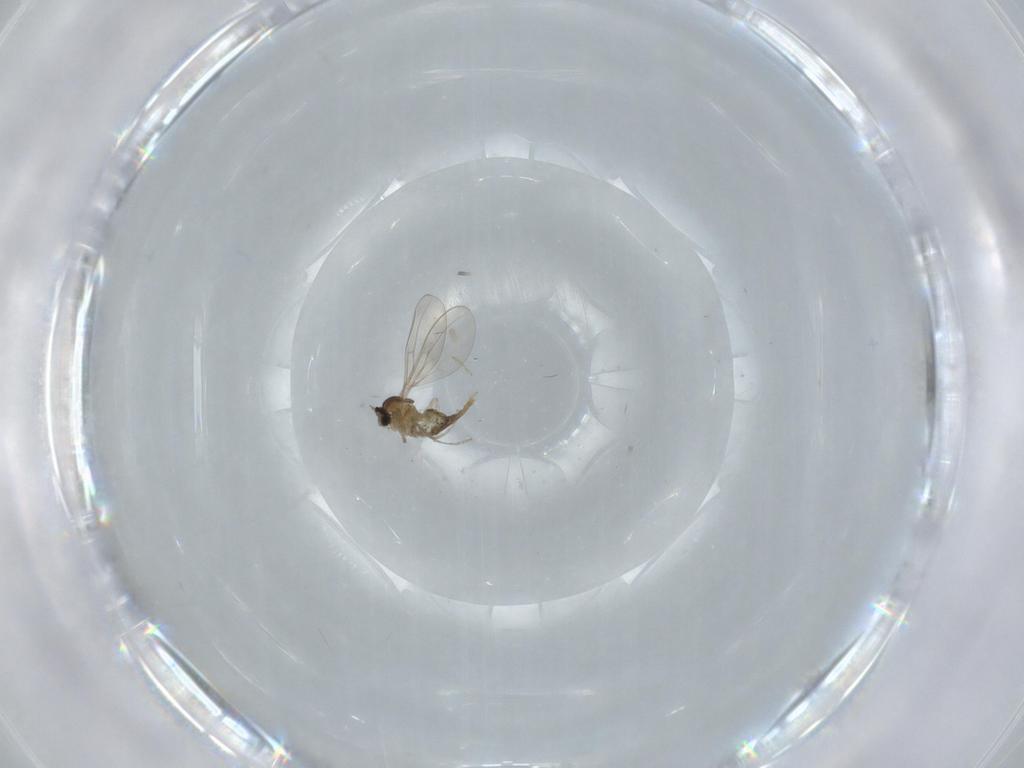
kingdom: Animalia
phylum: Arthropoda
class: Insecta
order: Diptera
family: Cecidomyiidae
